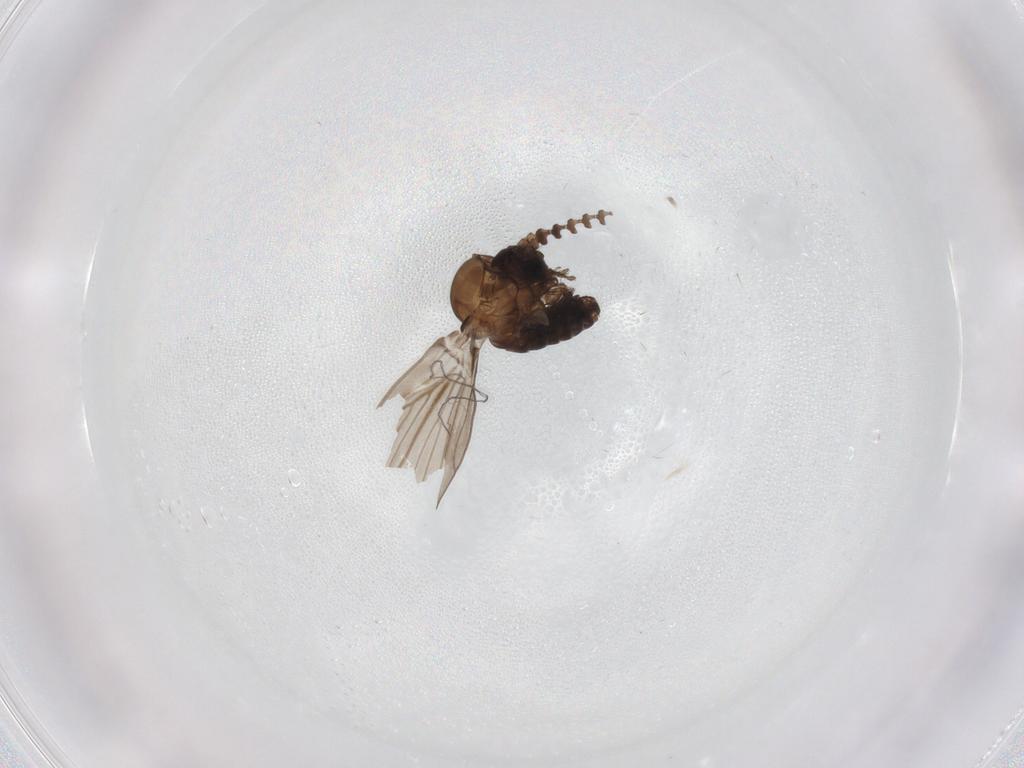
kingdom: Animalia
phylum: Arthropoda
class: Insecta
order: Diptera
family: Psychodidae
